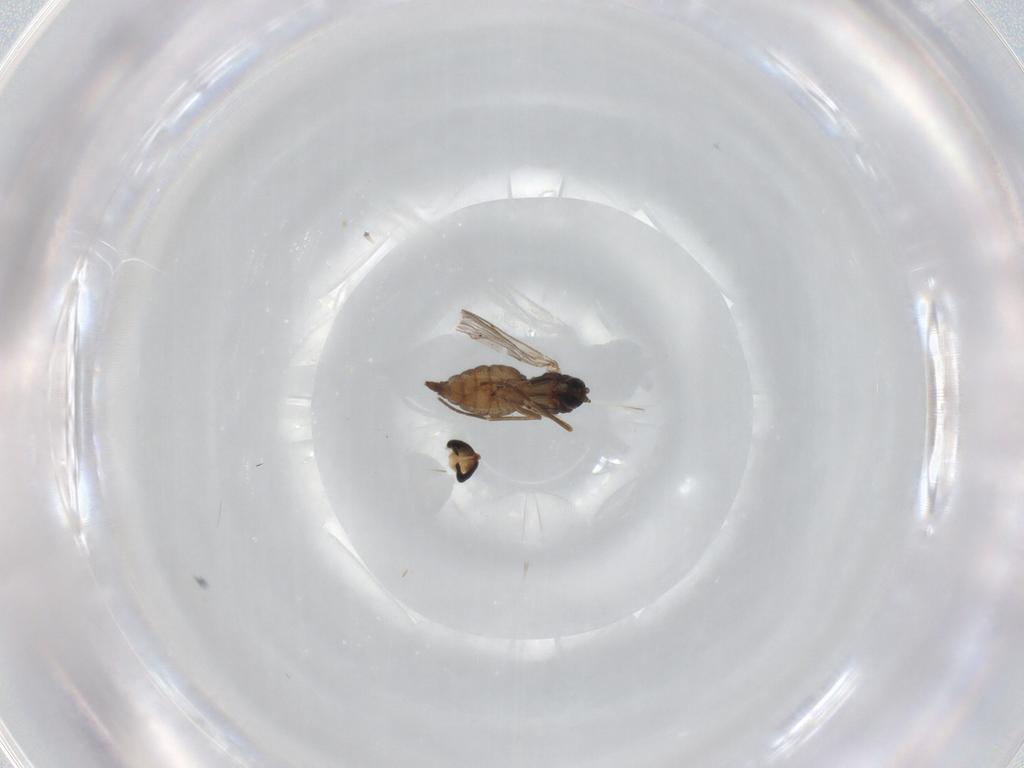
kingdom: Animalia
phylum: Arthropoda
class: Insecta
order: Diptera
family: Sciaridae
